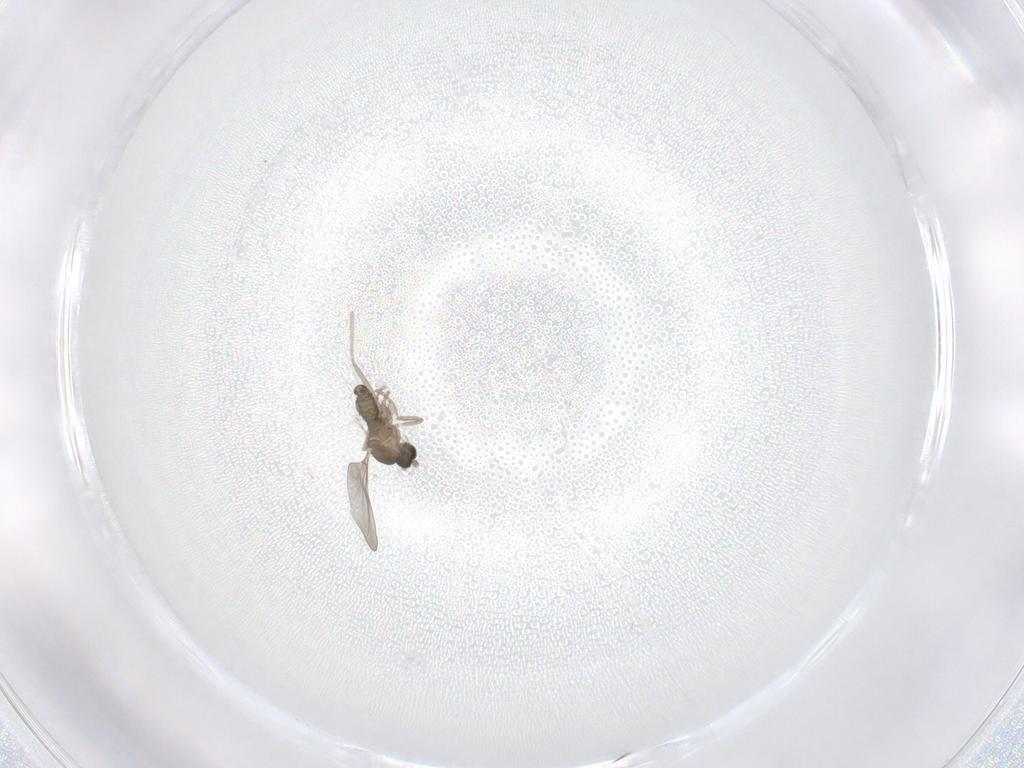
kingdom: Animalia
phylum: Arthropoda
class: Insecta
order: Diptera
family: Cecidomyiidae
